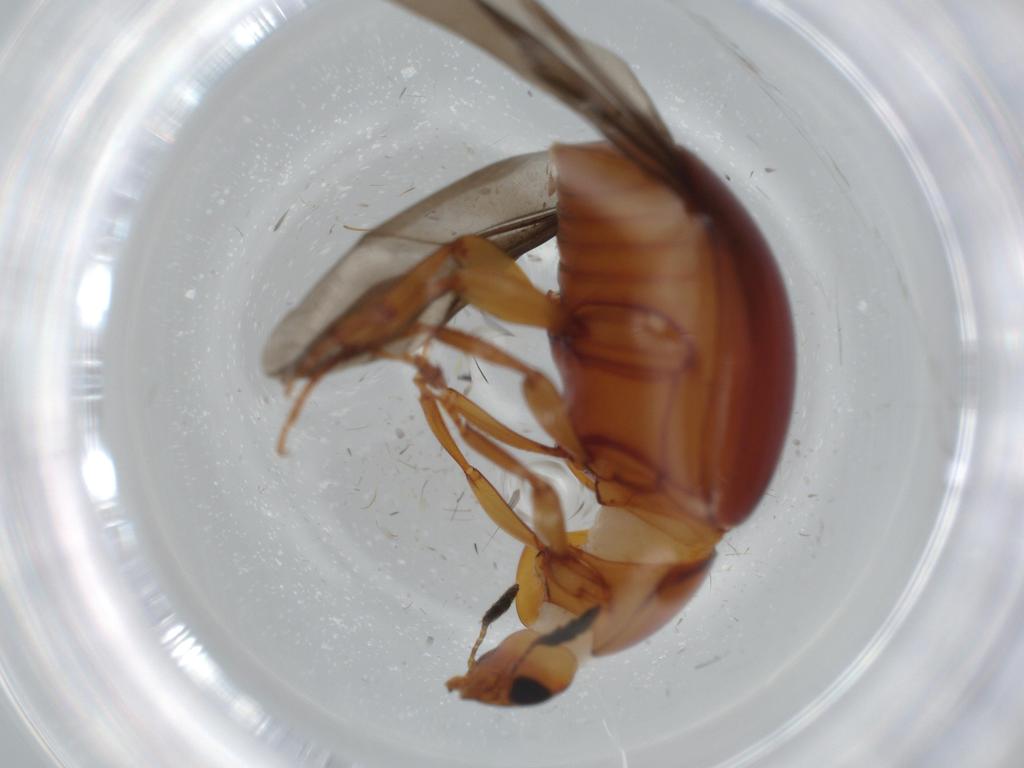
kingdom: Animalia
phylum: Arthropoda
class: Insecta
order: Coleoptera
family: Nitidulidae
